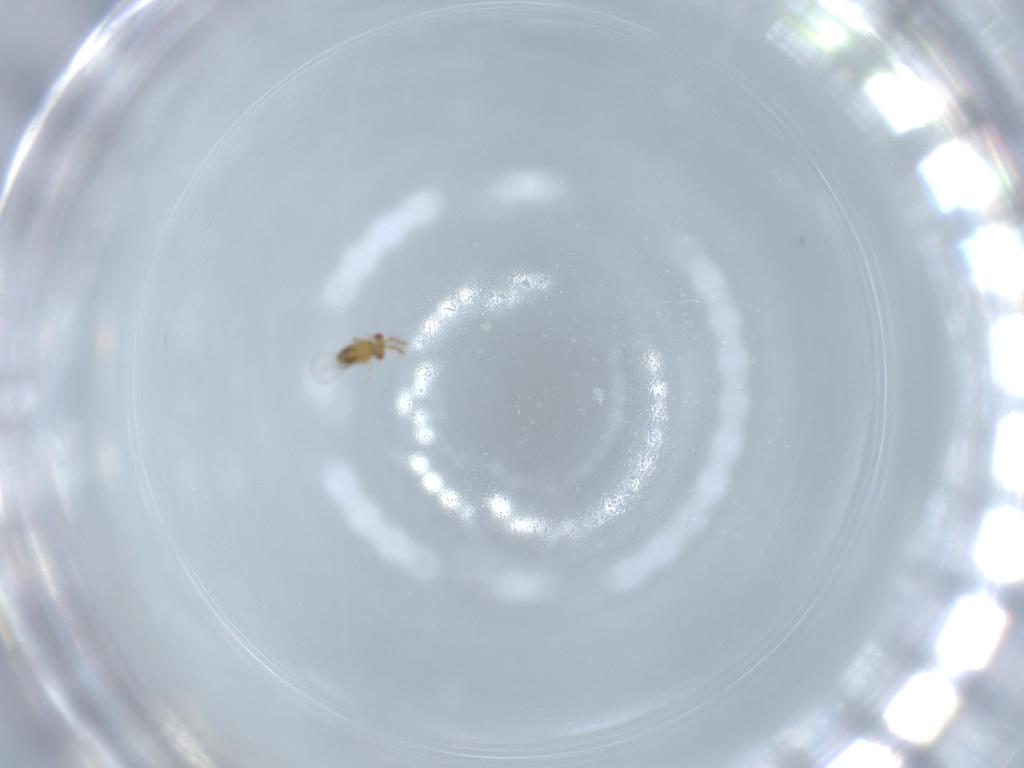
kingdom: Animalia
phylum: Arthropoda
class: Insecta
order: Hymenoptera
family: Trichogrammatidae
